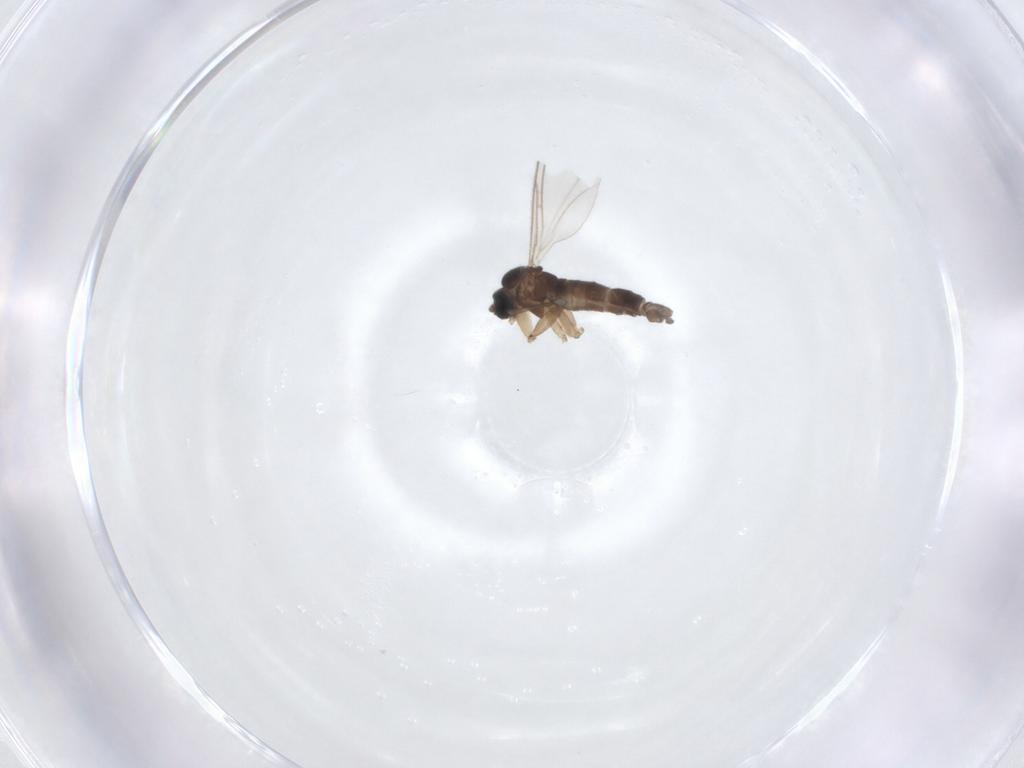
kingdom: Animalia
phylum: Arthropoda
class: Insecta
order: Diptera
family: Sciaridae
